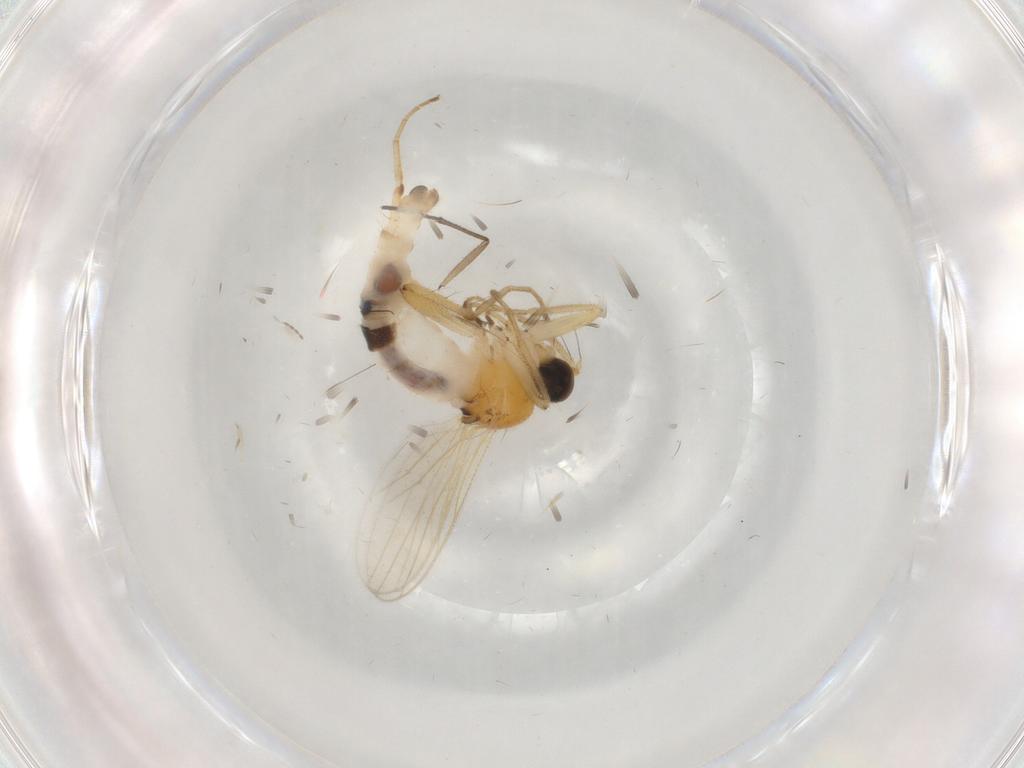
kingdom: Animalia
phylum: Arthropoda
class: Insecta
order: Diptera
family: Hybotidae
